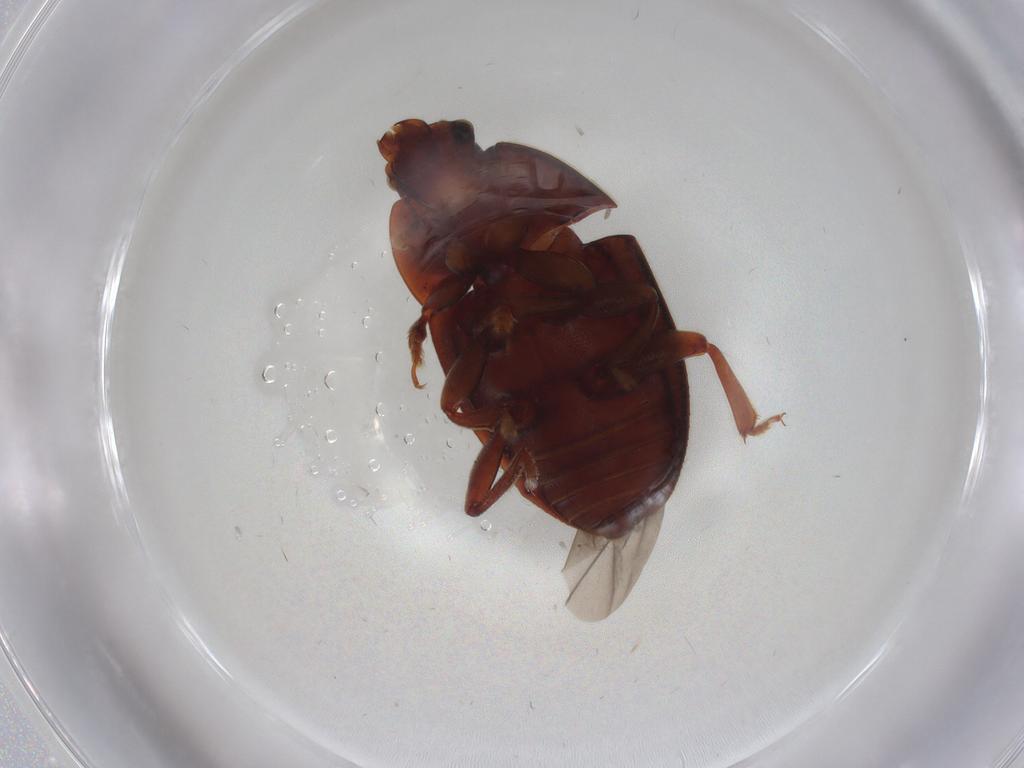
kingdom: Animalia
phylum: Arthropoda
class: Insecta
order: Coleoptera
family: Nitidulidae
